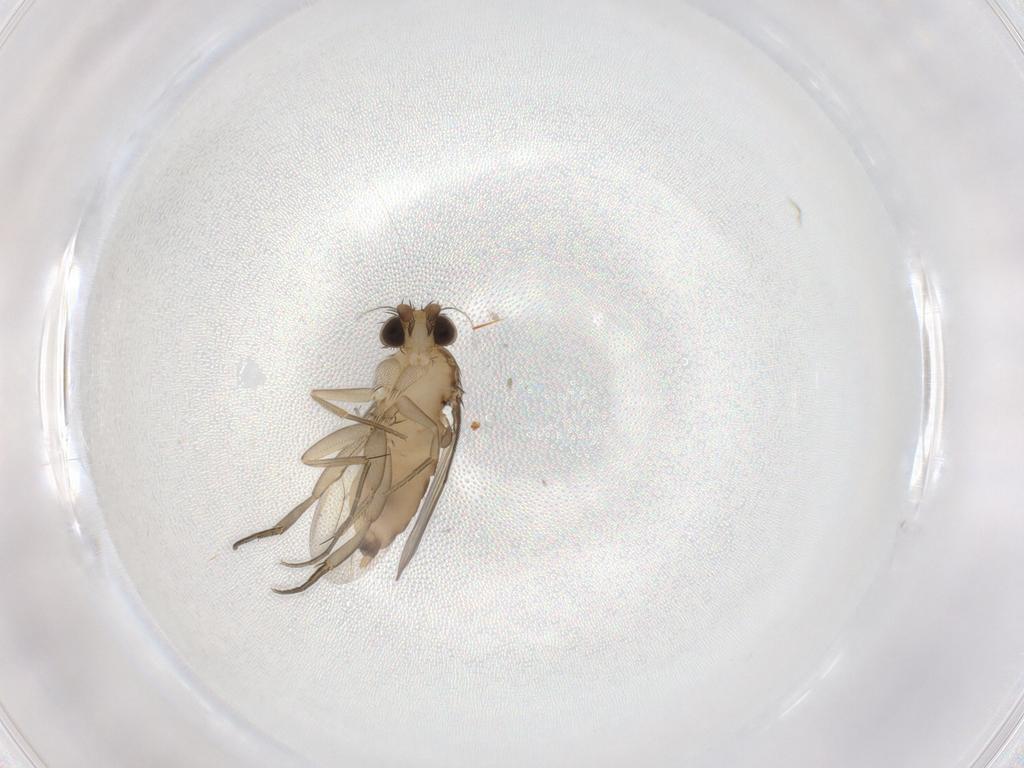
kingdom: Animalia
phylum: Arthropoda
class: Insecta
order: Diptera
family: Phoridae
